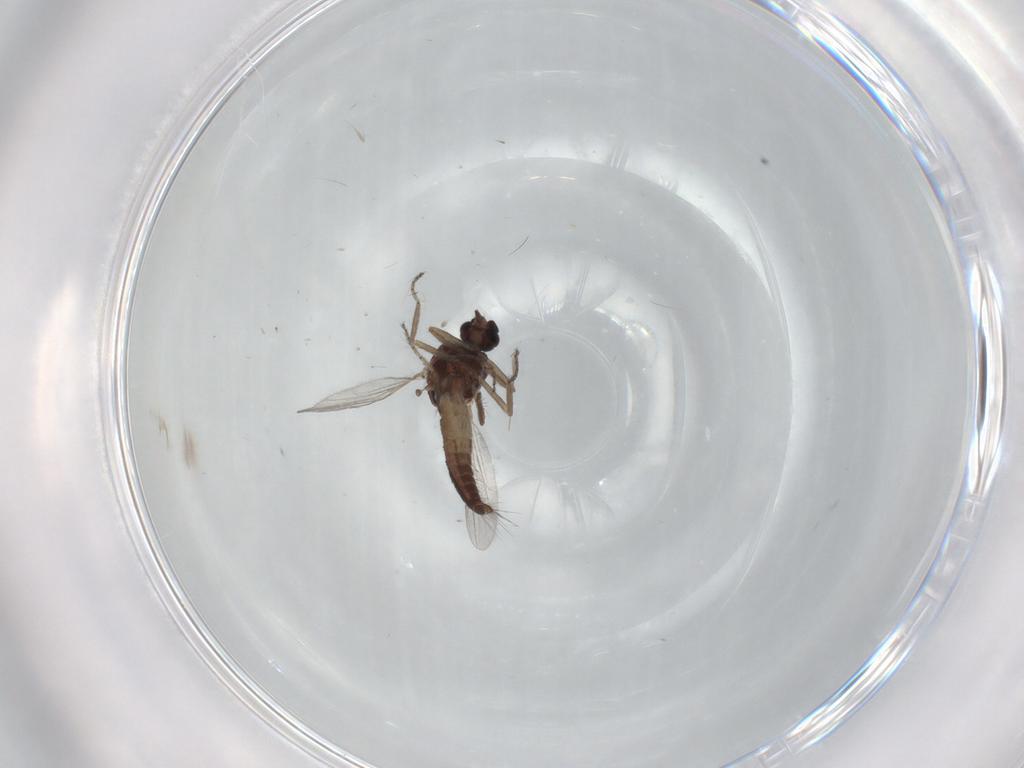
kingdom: Animalia
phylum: Arthropoda
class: Insecta
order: Diptera
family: Ceratopogonidae
